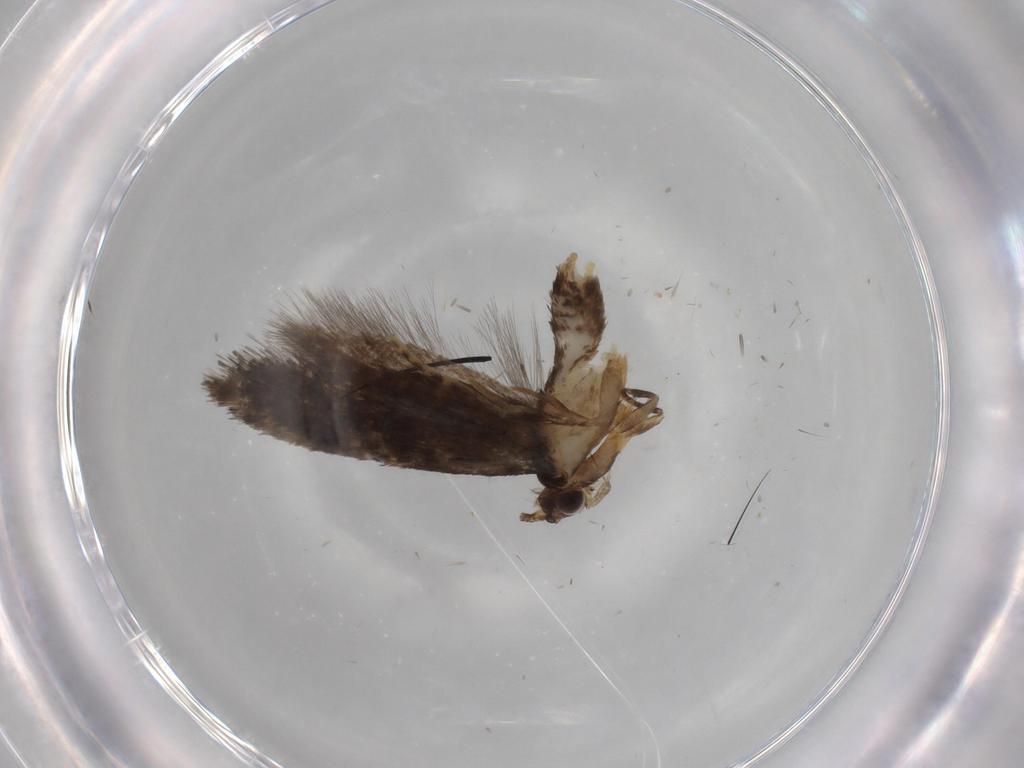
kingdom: Animalia
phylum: Arthropoda
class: Insecta
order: Lepidoptera
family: Tineidae
